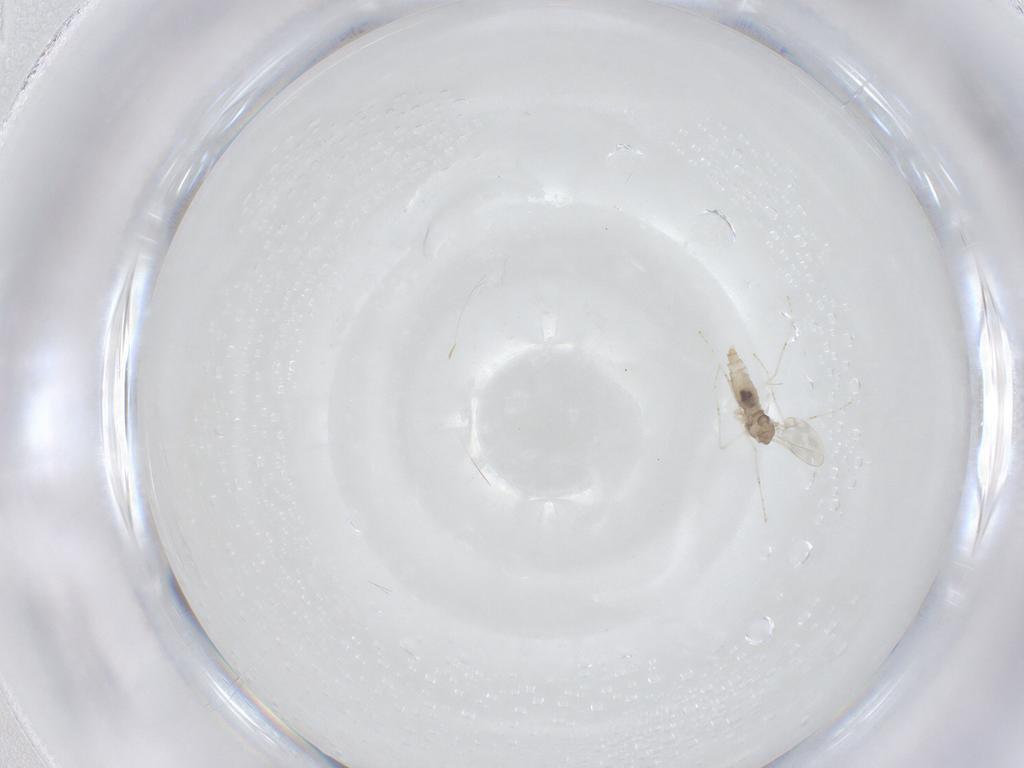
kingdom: Animalia
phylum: Arthropoda
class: Insecta
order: Diptera
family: Cecidomyiidae
